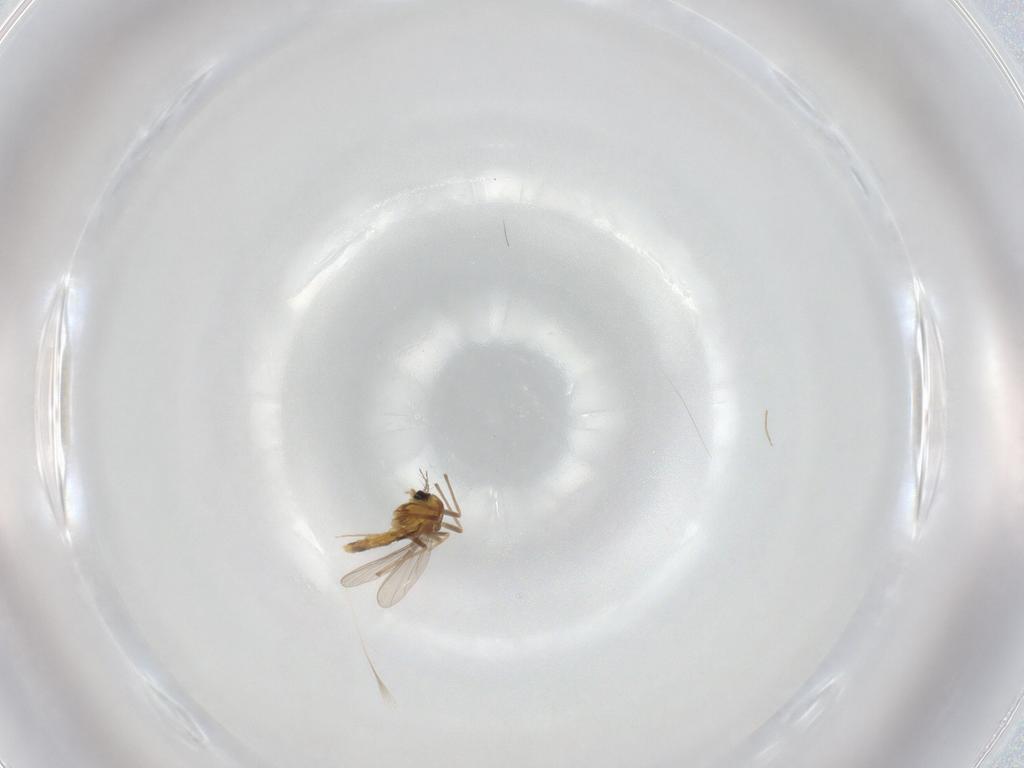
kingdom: Animalia
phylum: Arthropoda
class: Insecta
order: Diptera
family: Chironomidae
